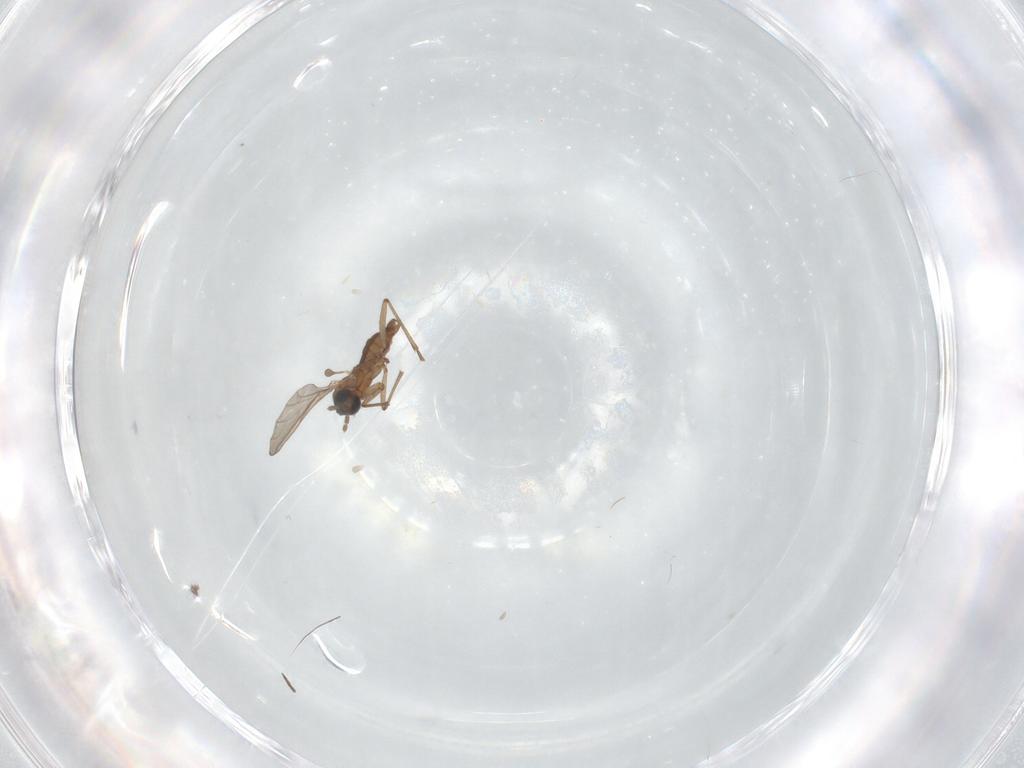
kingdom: Animalia
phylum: Arthropoda
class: Insecta
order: Diptera
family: Sciaridae
